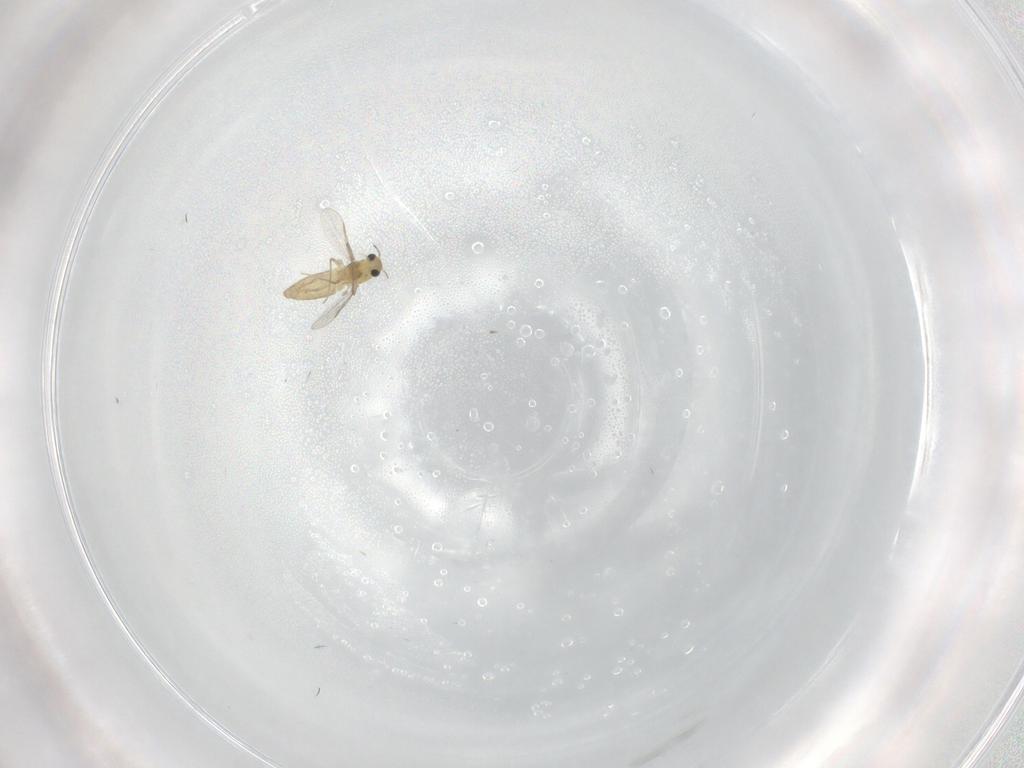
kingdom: Animalia
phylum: Arthropoda
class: Insecta
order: Diptera
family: Chironomidae
